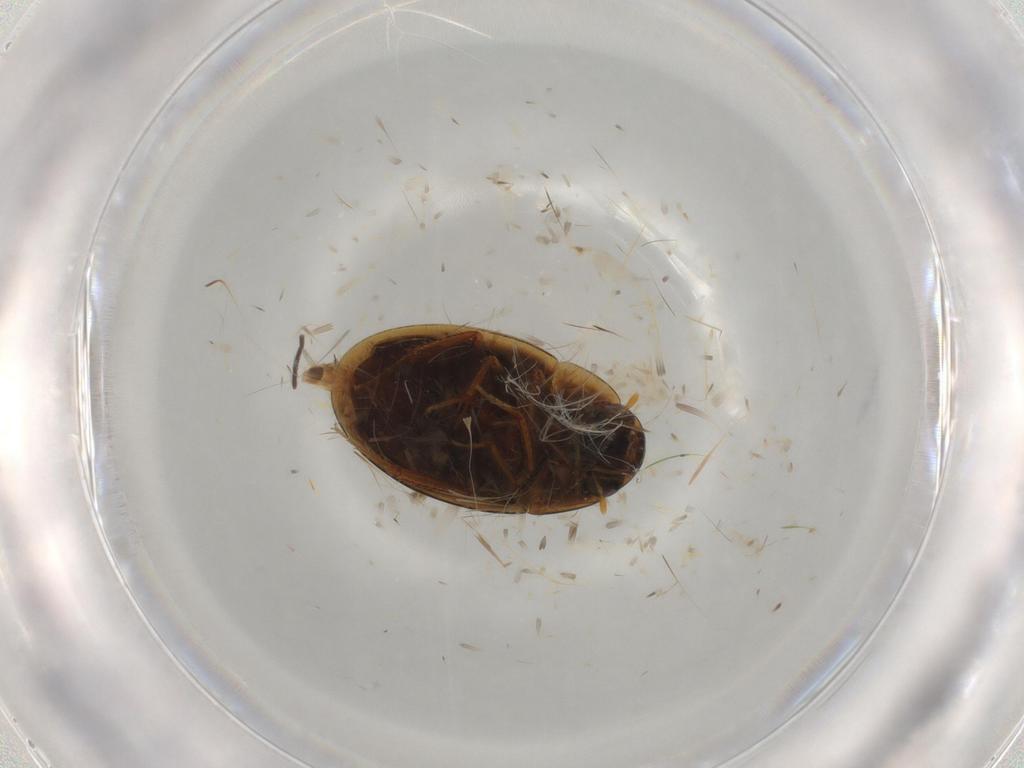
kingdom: Animalia
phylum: Arthropoda
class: Insecta
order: Coleoptera
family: Hydrophilidae
